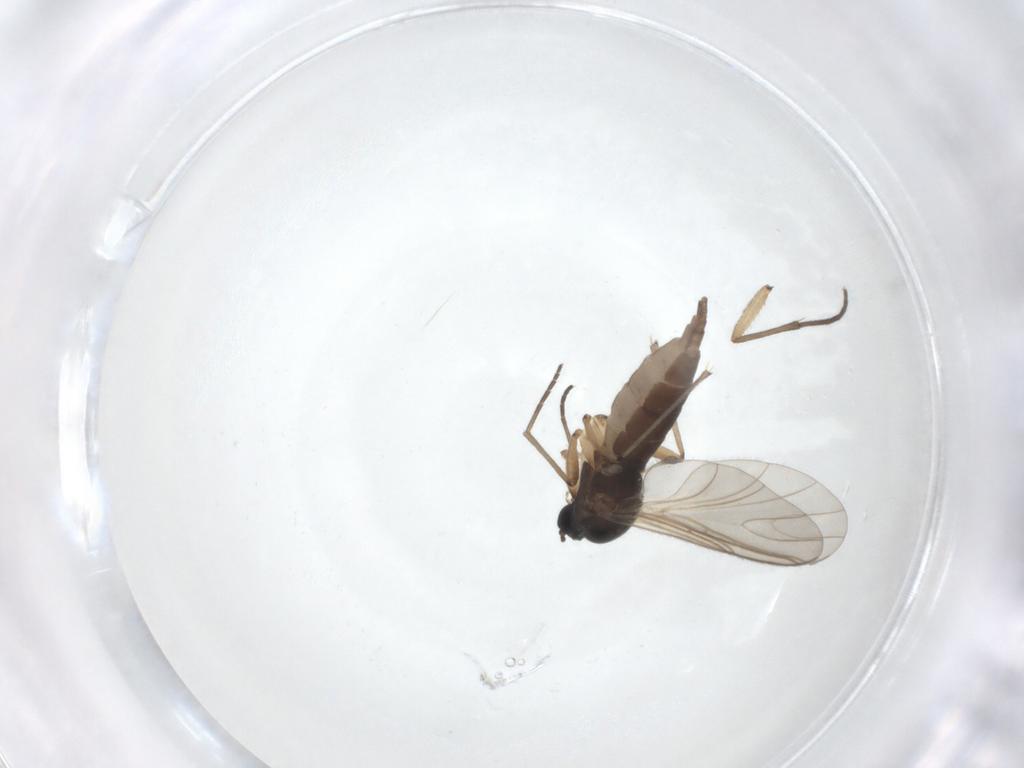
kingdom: Animalia
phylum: Arthropoda
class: Insecta
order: Diptera
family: Sciaridae
